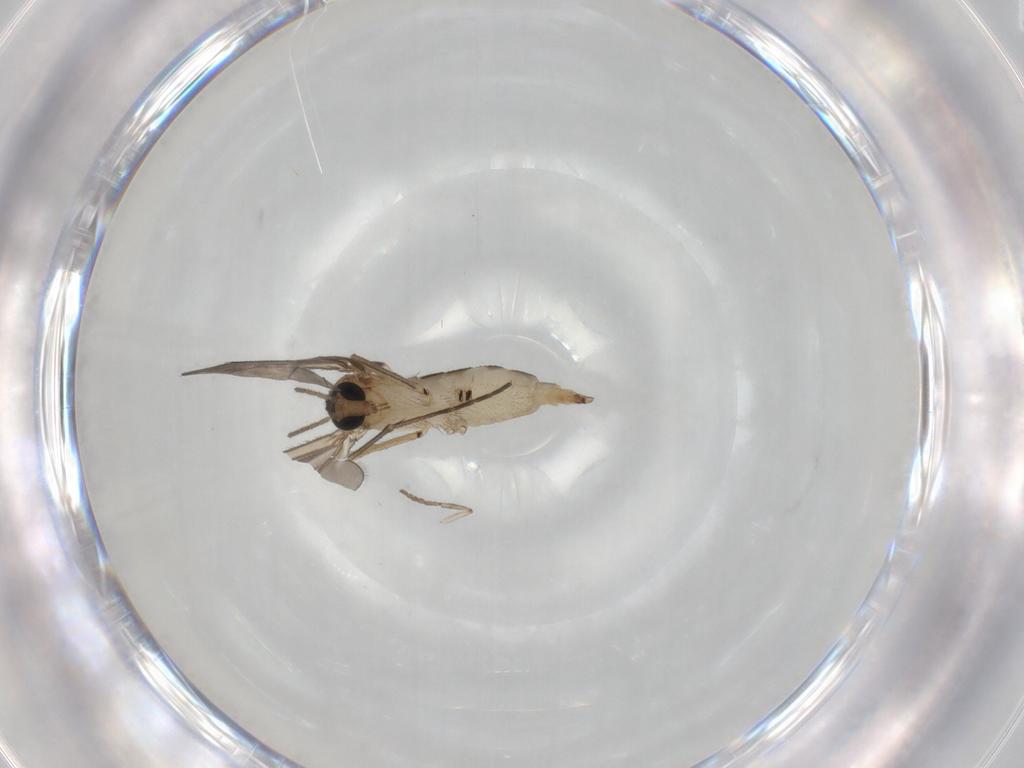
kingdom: Animalia
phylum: Arthropoda
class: Insecta
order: Diptera
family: Sciaridae
